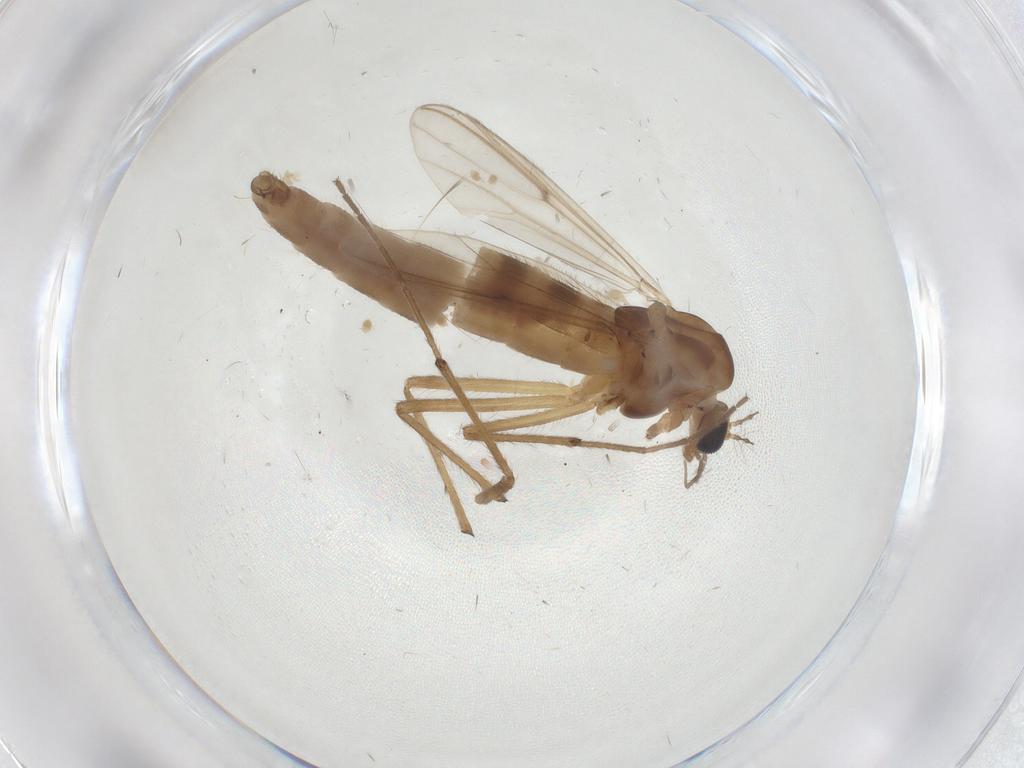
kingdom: Animalia
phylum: Arthropoda
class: Insecta
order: Diptera
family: Chironomidae
